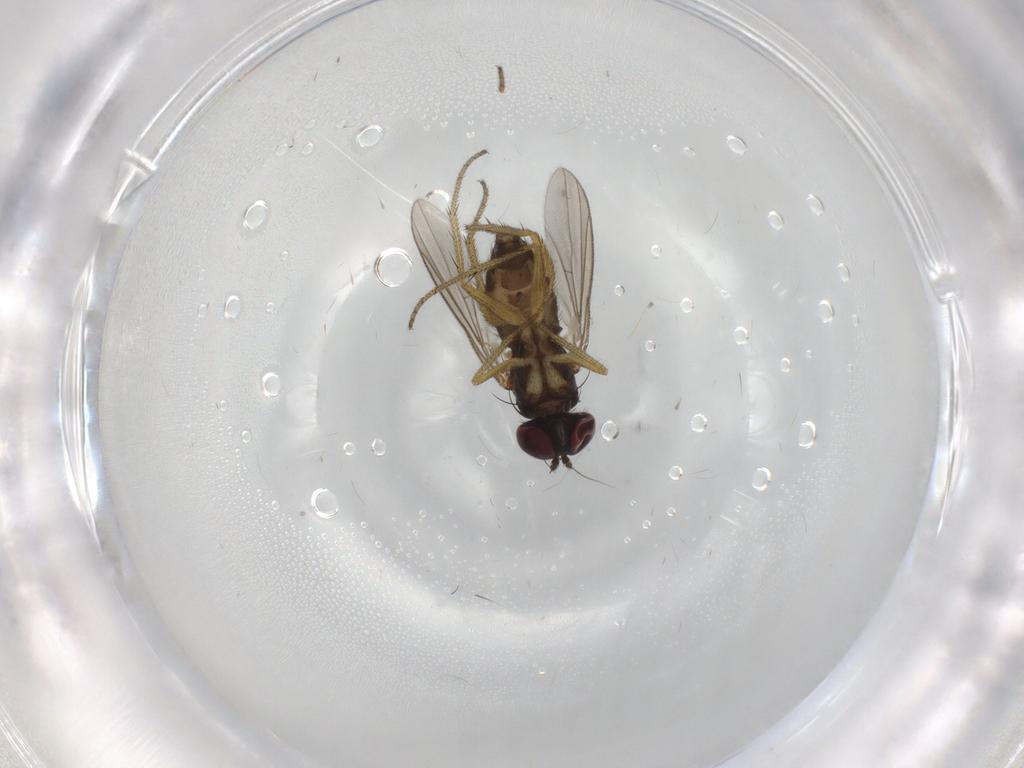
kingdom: Animalia
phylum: Arthropoda
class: Insecta
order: Diptera
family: Dolichopodidae
